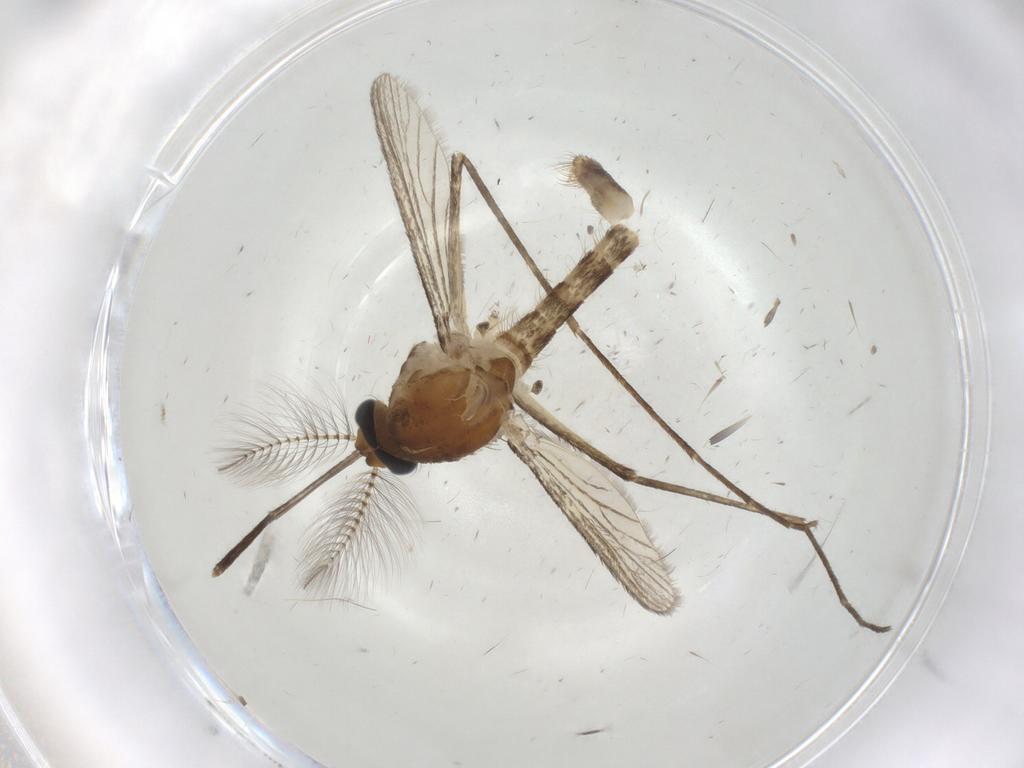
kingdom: Animalia
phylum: Arthropoda
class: Insecta
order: Diptera
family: Culicidae
